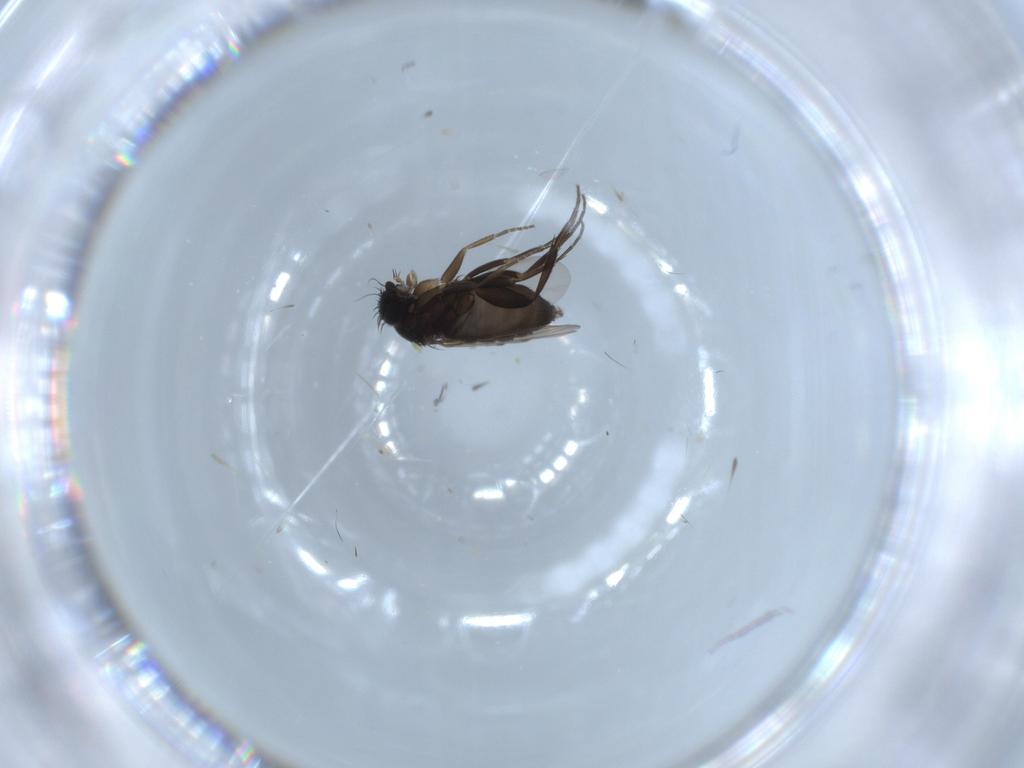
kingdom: Animalia
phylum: Arthropoda
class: Insecta
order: Diptera
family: Phoridae
